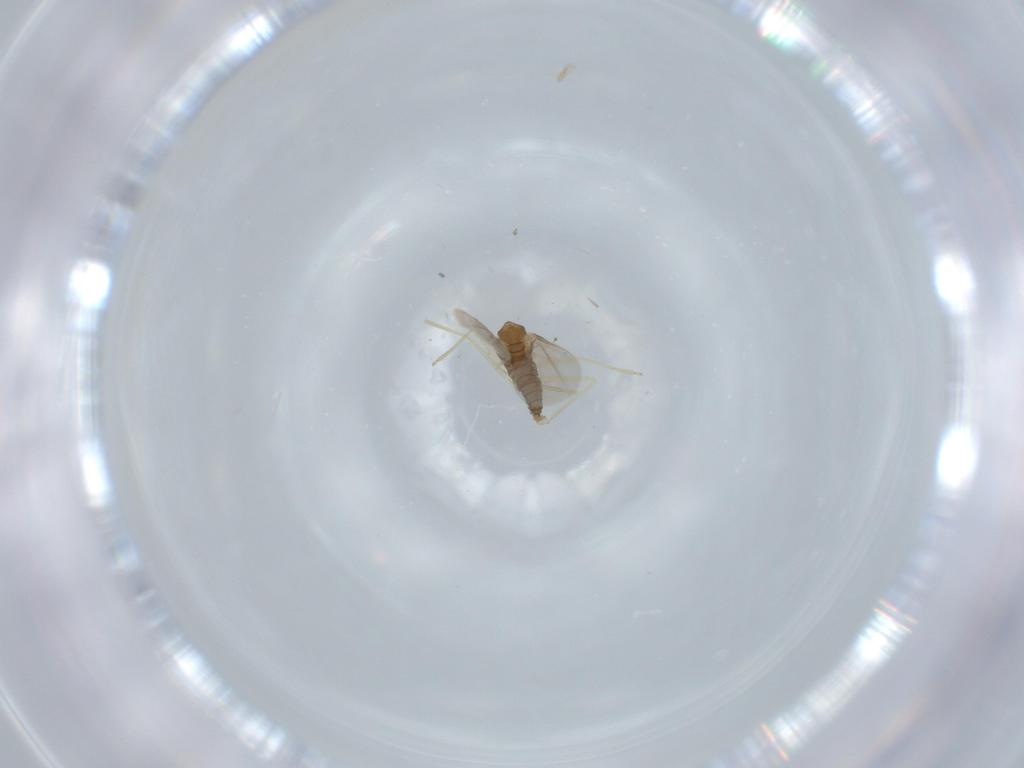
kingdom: Animalia
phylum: Arthropoda
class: Insecta
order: Diptera
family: Cecidomyiidae
